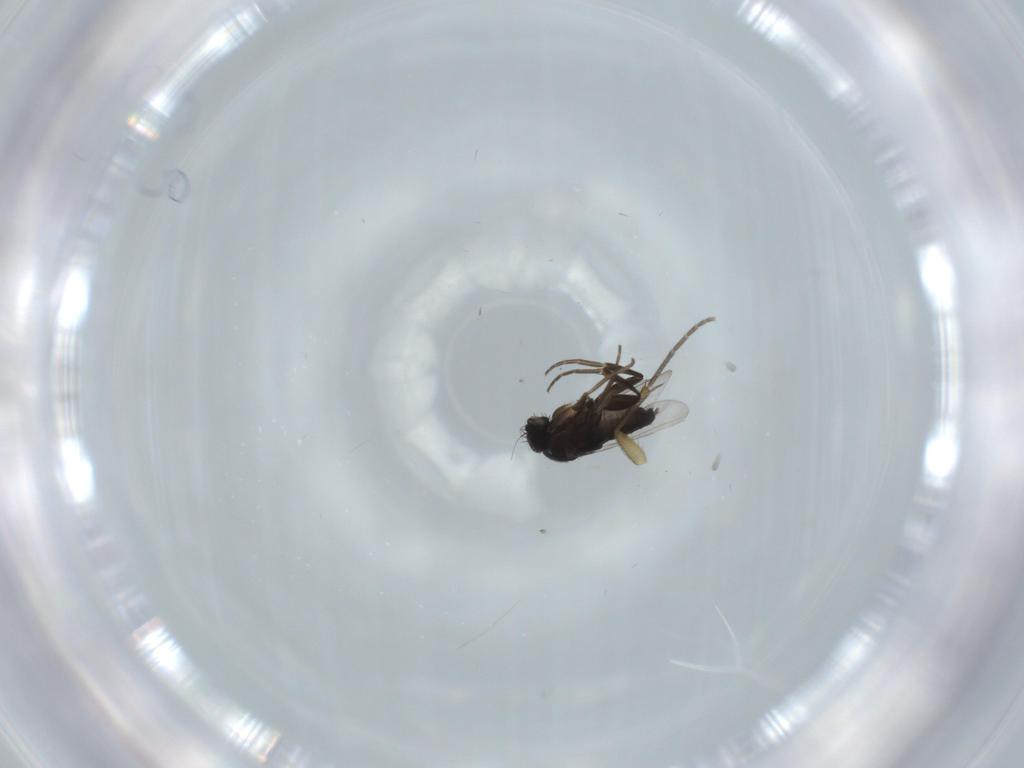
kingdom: Animalia
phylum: Arthropoda
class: Insecta
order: Diptera
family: Mycetophilidae
